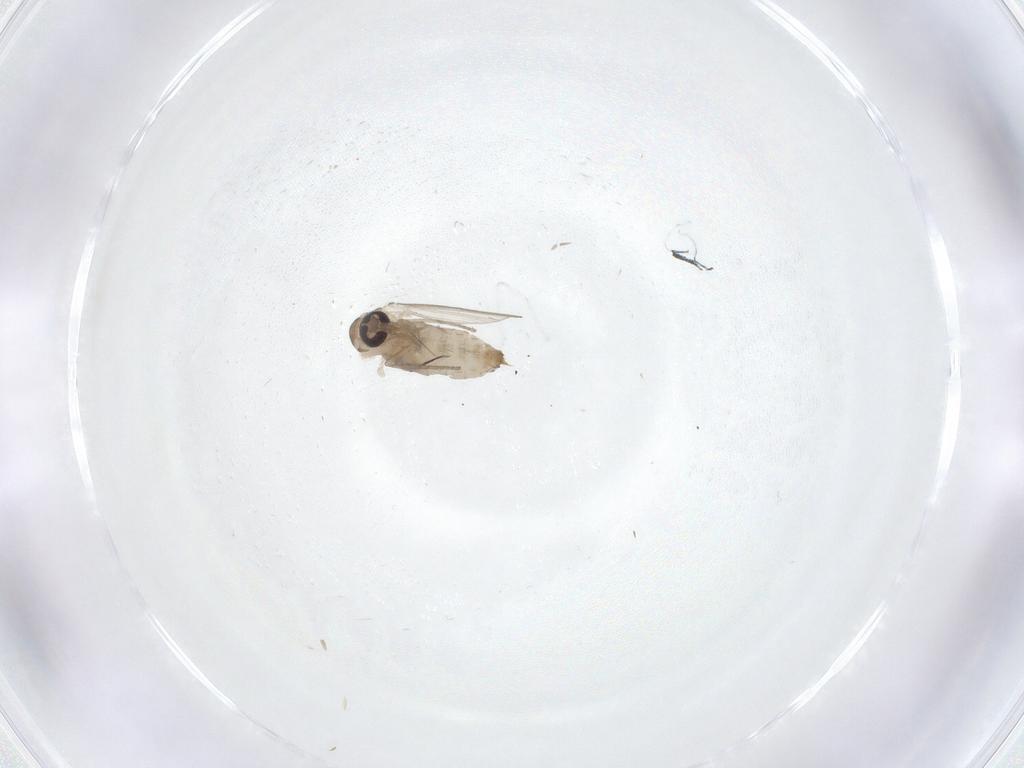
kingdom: Animalia
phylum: Arthropoda
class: Insecta
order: Diptera
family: Psychodidae
